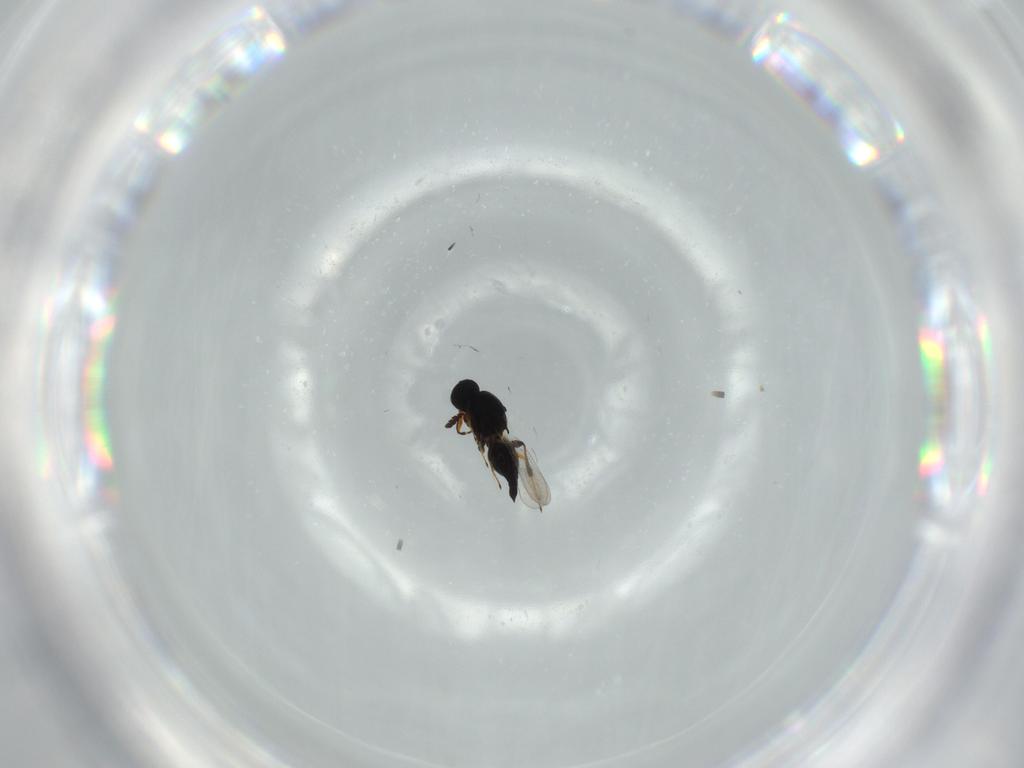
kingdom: Animalia
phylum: Arthropoda
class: Insecta
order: Hymenoptera
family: Platygastridae
